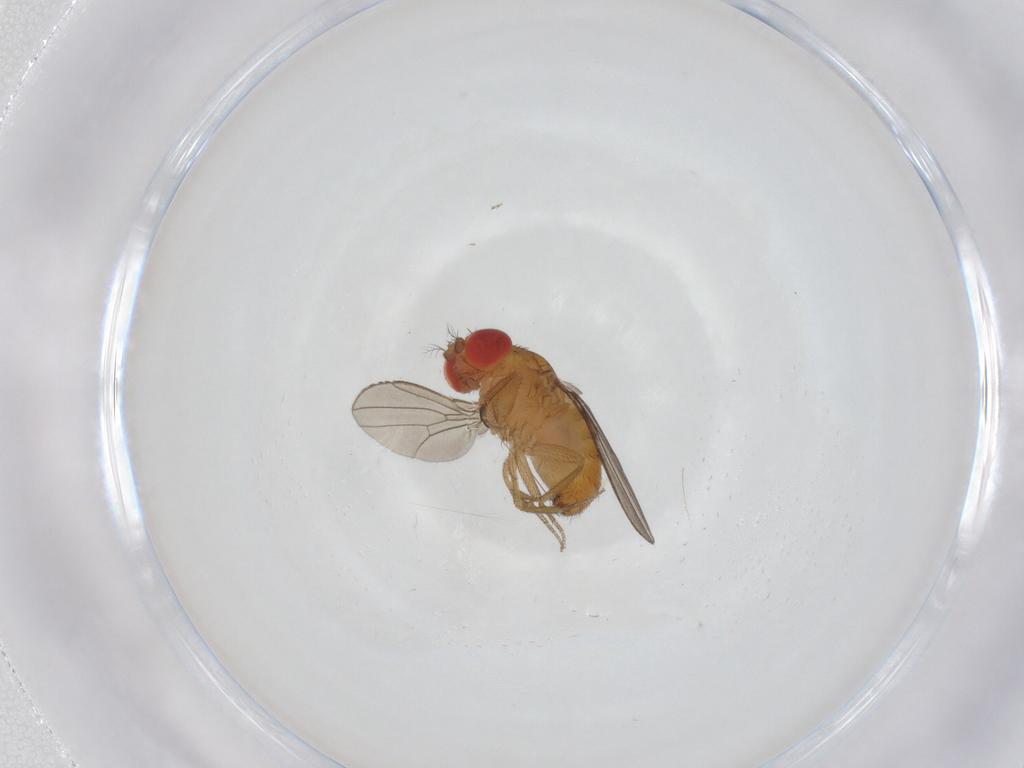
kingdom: Animalia
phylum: Arthropoda
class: Insecta
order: Diptera
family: Drosophilidae
